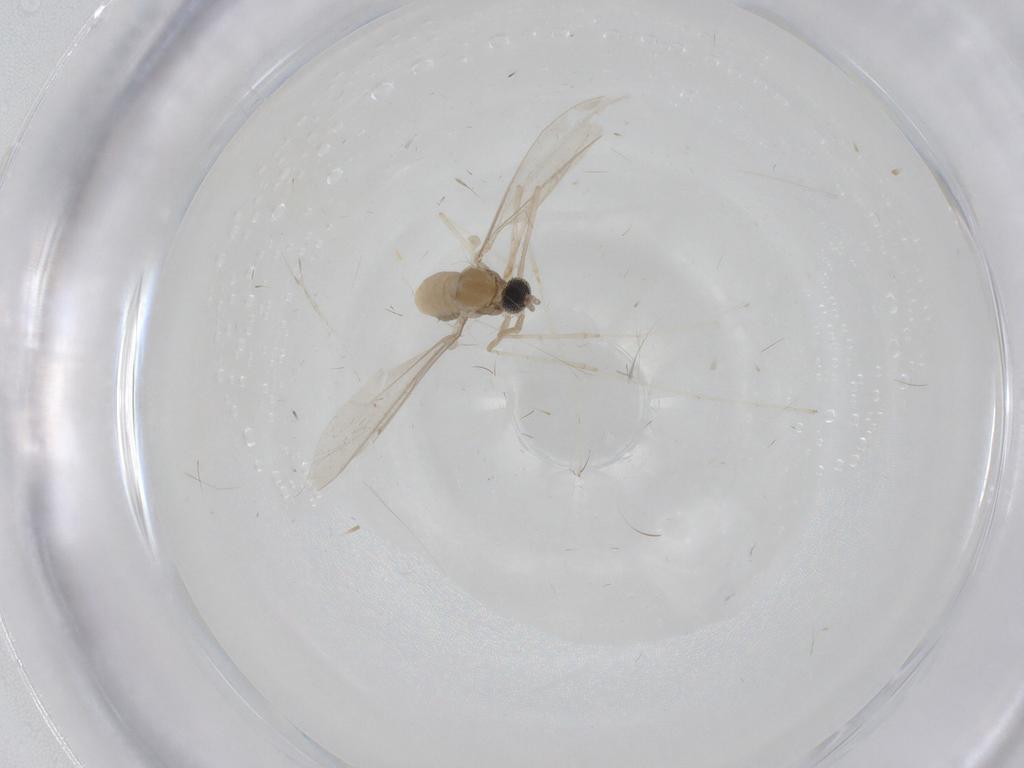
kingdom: Animalia
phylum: Arthropoda
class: Insecta
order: Diptera
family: Cecidomyiidae
